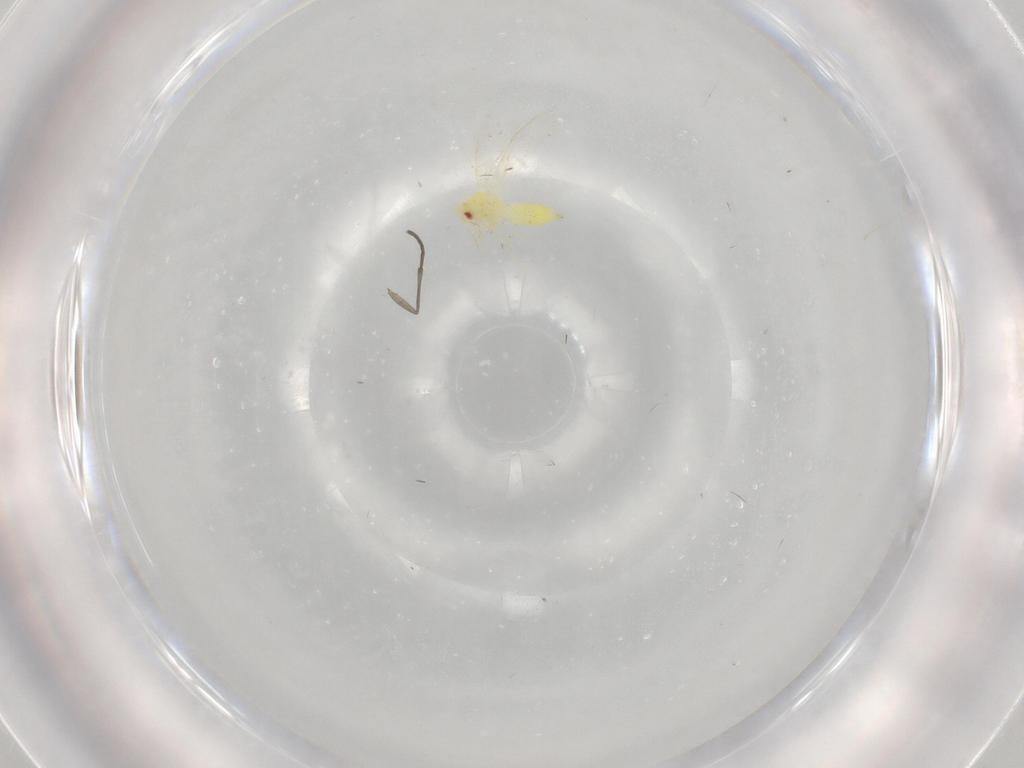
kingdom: Animalia
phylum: Arthropoda
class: Insecta
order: Hemiptera
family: Aleyrodidae
